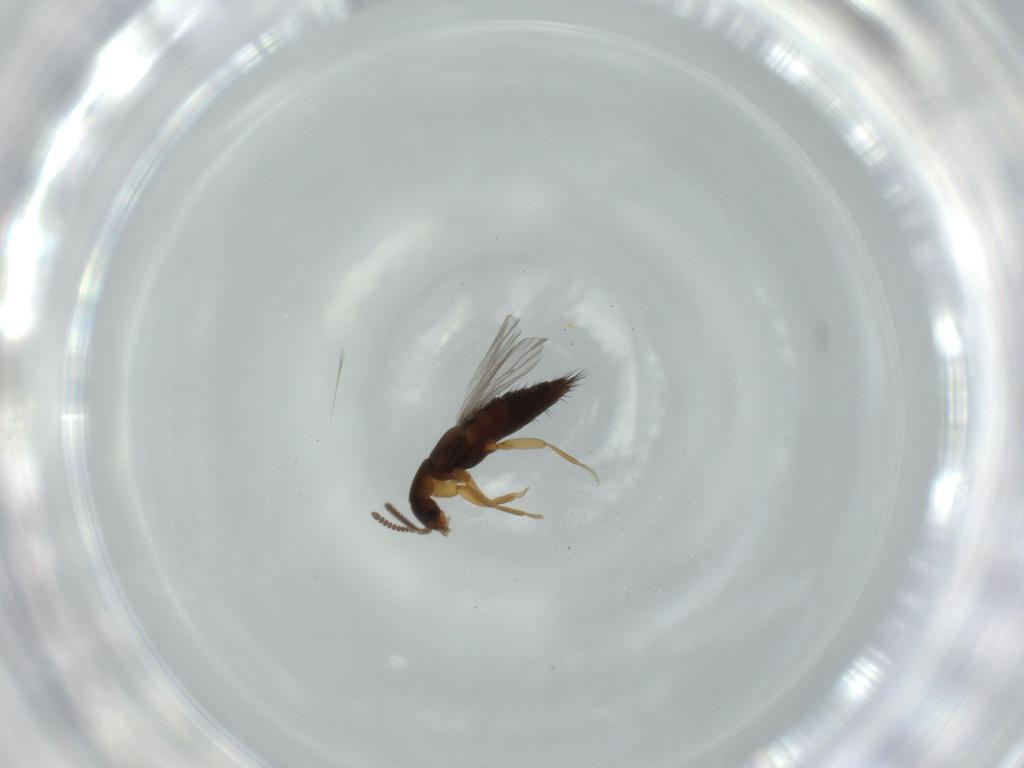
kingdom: Animalia
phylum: Arthropoda
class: Insecta
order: Coleoptera
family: Staphylinidae
